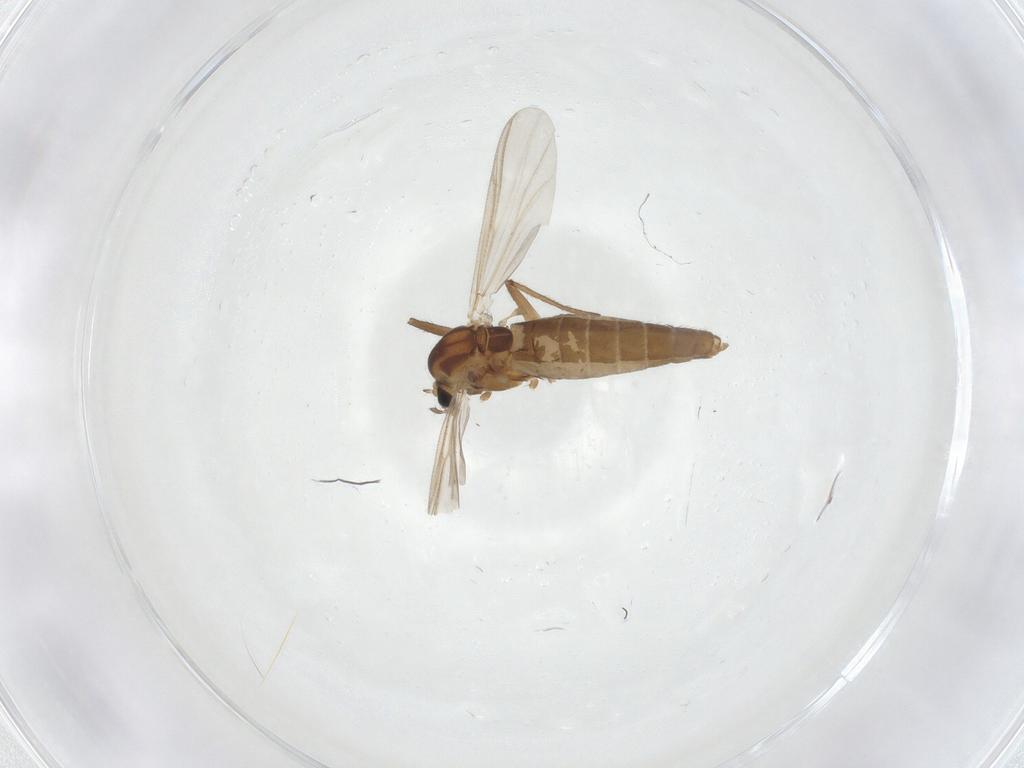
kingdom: Animalia
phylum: Arthropoda
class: Insecta
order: Diptera
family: Chironomidae
